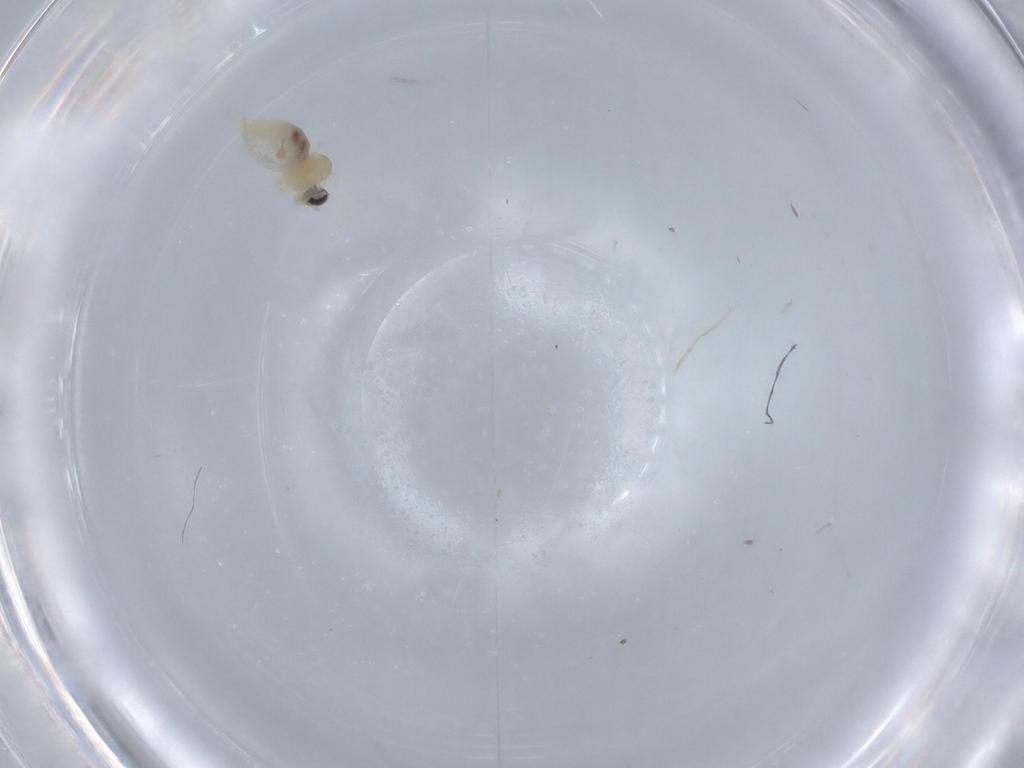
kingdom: Animalia
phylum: Arthropoda
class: Insecta
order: Diptera
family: Cecidomyiidae
